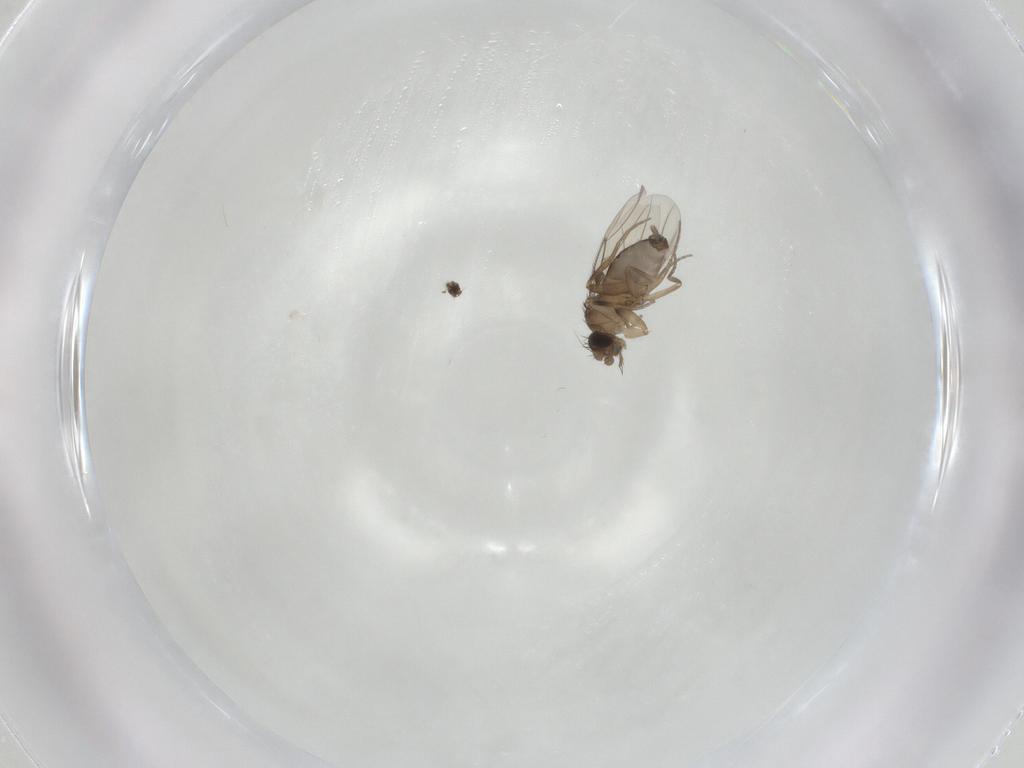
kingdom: Animalia
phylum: Arthropoda
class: Insecta
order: Diptera
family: Phoridae
